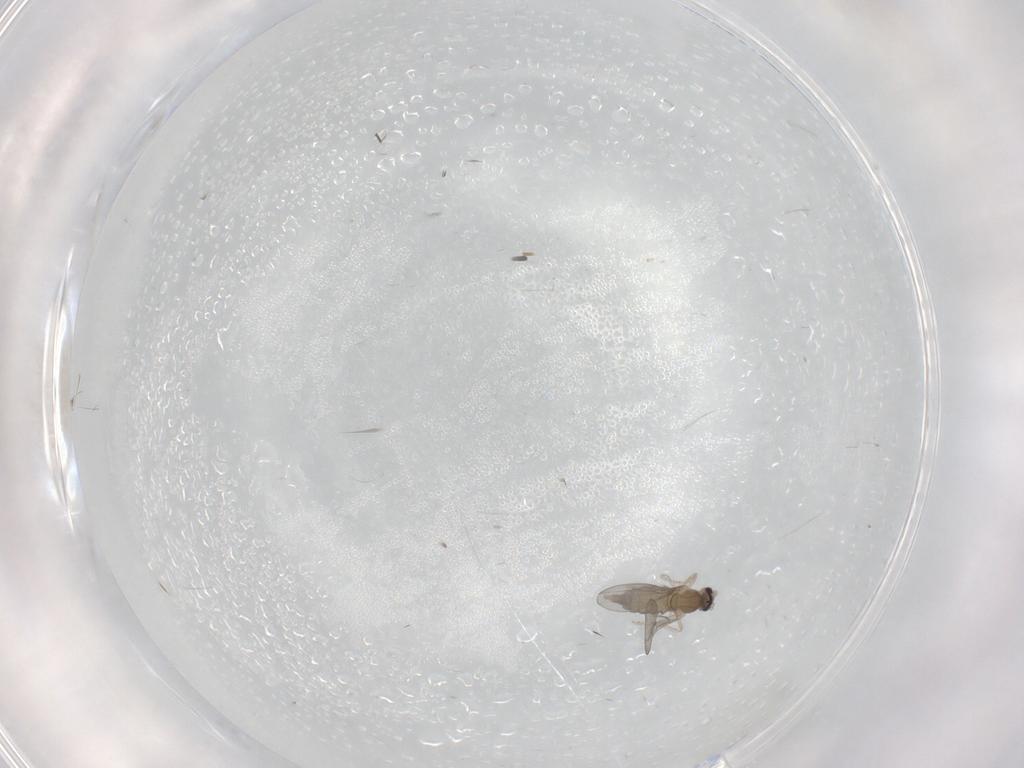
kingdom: Animalia
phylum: Arthropoda
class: Insecta
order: Diptera
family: Cecidomyiidae
